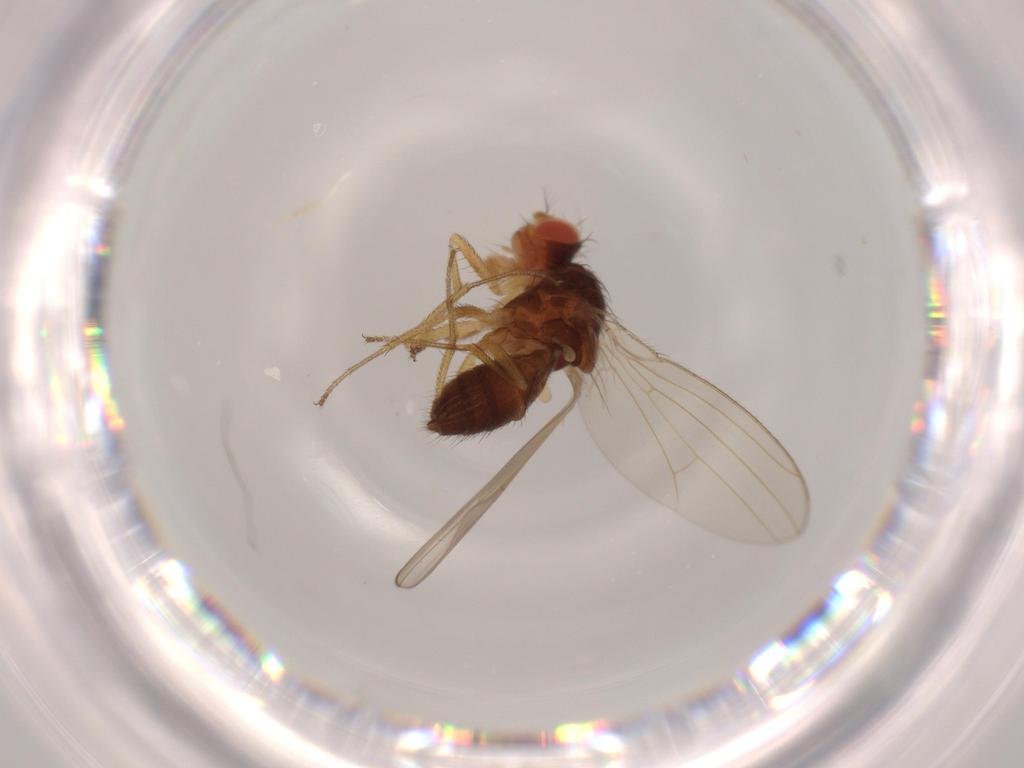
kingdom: Animalia
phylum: Arthropoda
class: Insecta
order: Diptera
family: Drosophilidae
